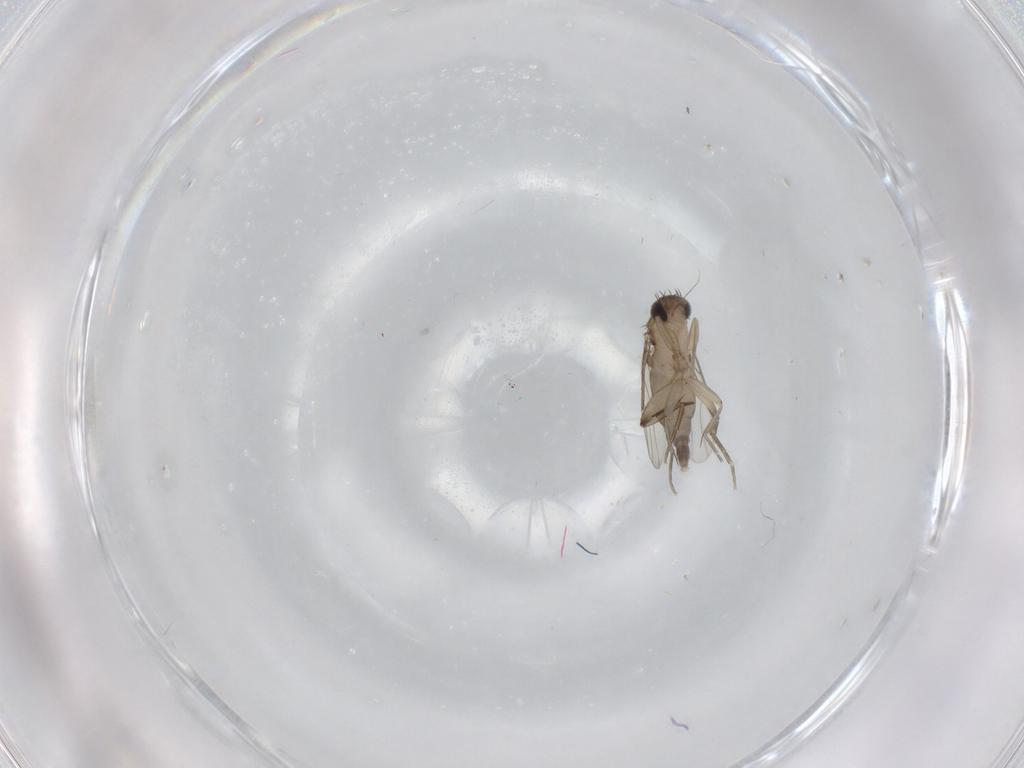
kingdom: Animalia
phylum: Arthropoda
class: Insecta
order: Diptera
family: Phoridae
